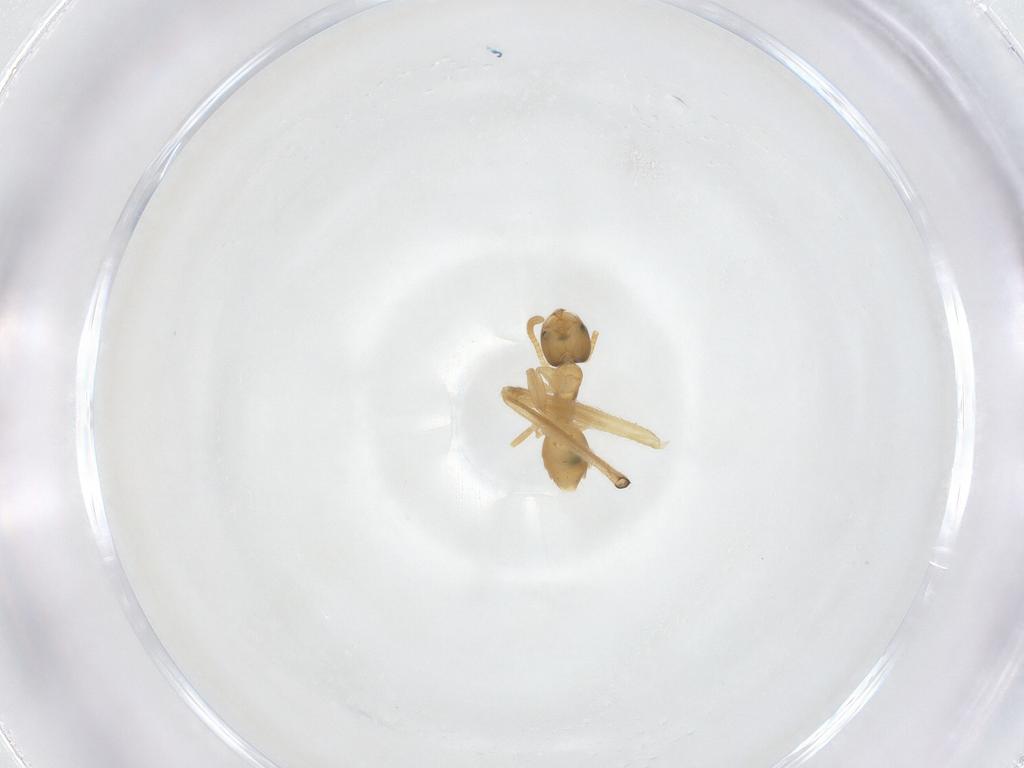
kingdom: Animalia
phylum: Arthropoda
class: Insecta
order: Hymenoptera
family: Formicidae
